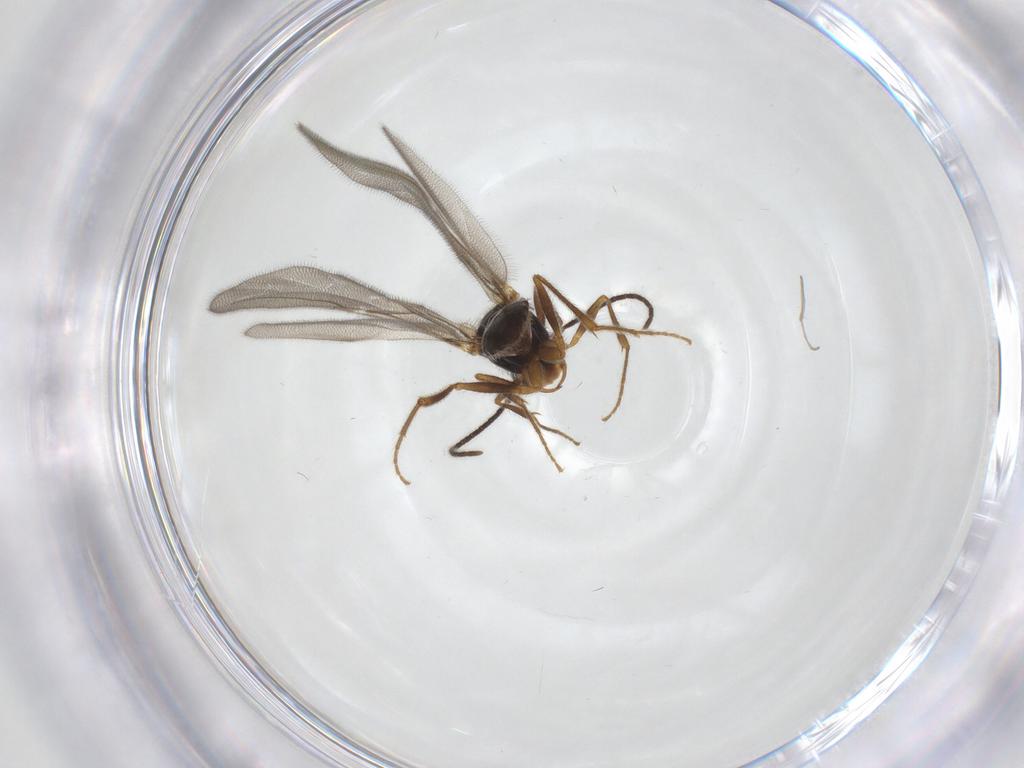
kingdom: Animalia
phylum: Arthropoda
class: Insecta
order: Hymenoptera
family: Bethylidae
